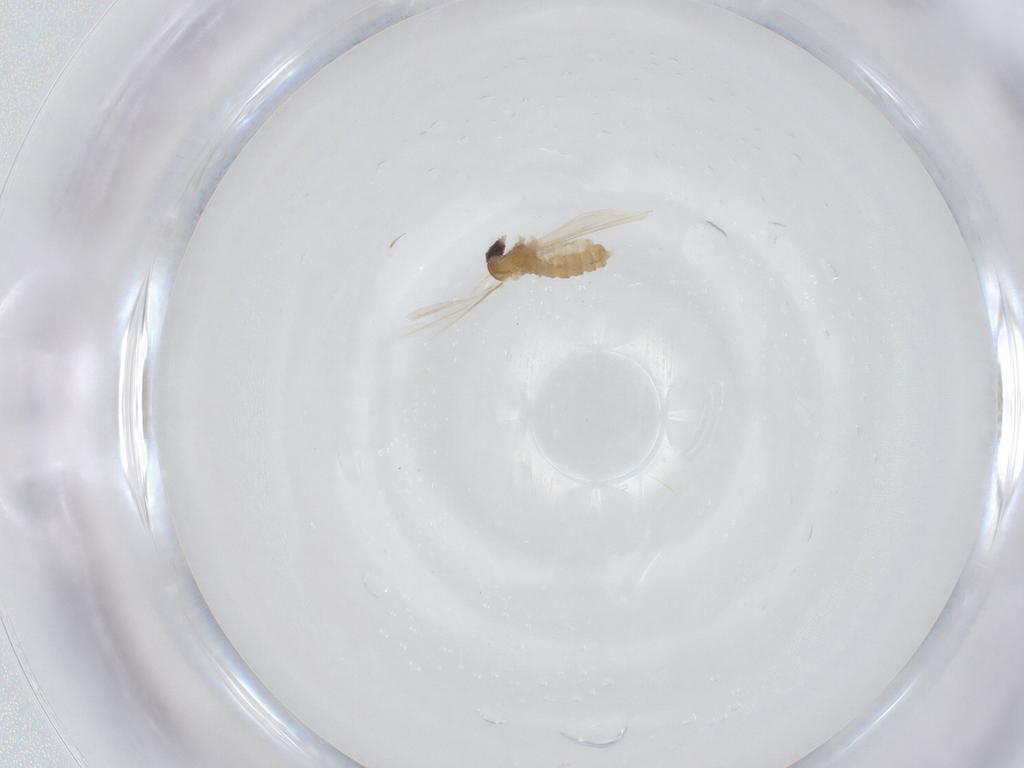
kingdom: Animalia
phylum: Arthropoda
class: Insecta
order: Diptera
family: Cecidomyiidae
